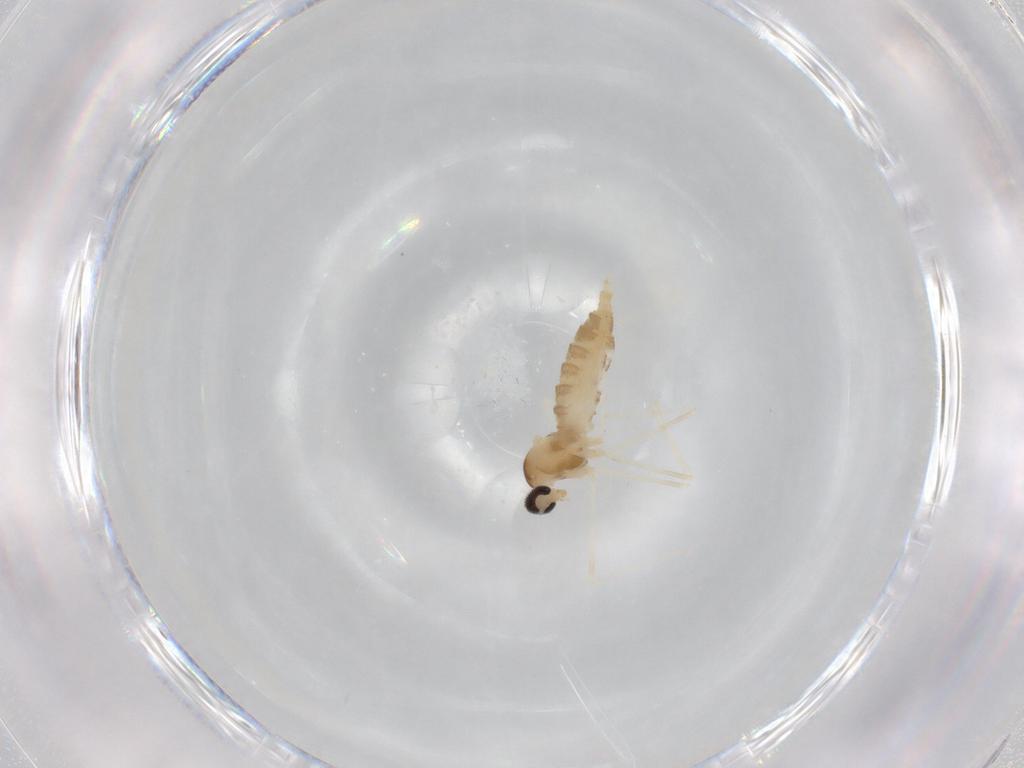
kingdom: Animalia
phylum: Arthropoda
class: Insecta
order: Diptera
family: Cecidomyiidae
